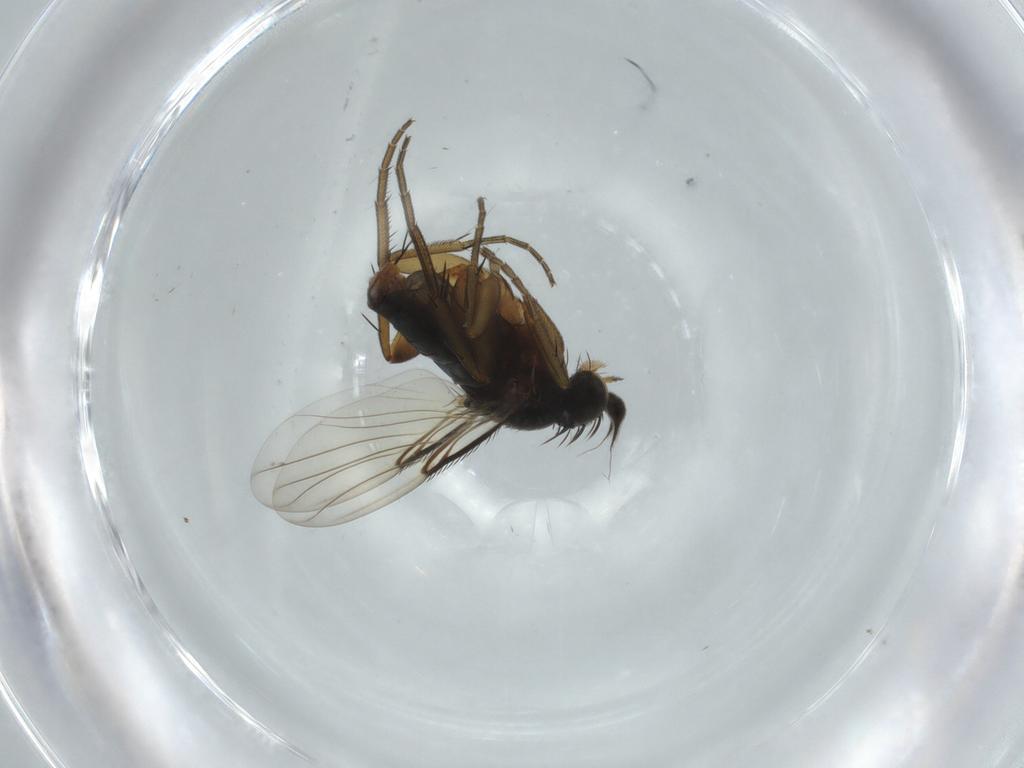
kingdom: Animalia
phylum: Arthropoda
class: Insecta
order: Diptera
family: Phoridae
